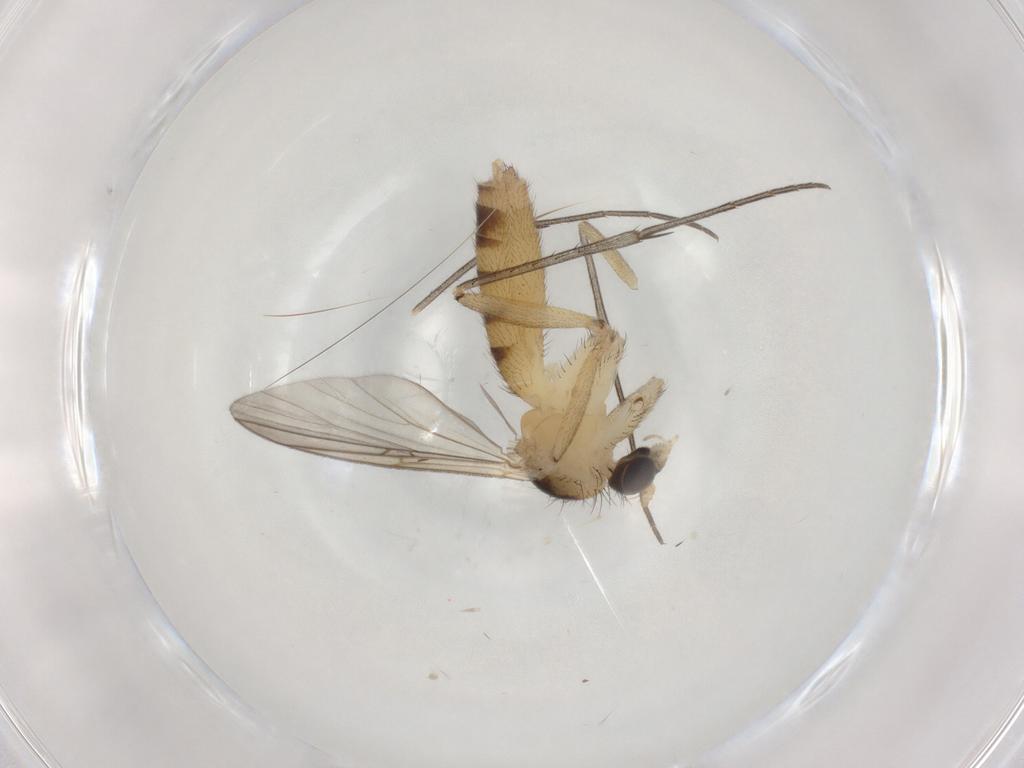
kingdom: Animalia
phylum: Arthropoda
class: Insecta
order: Diptera
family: Mycetophilidae
